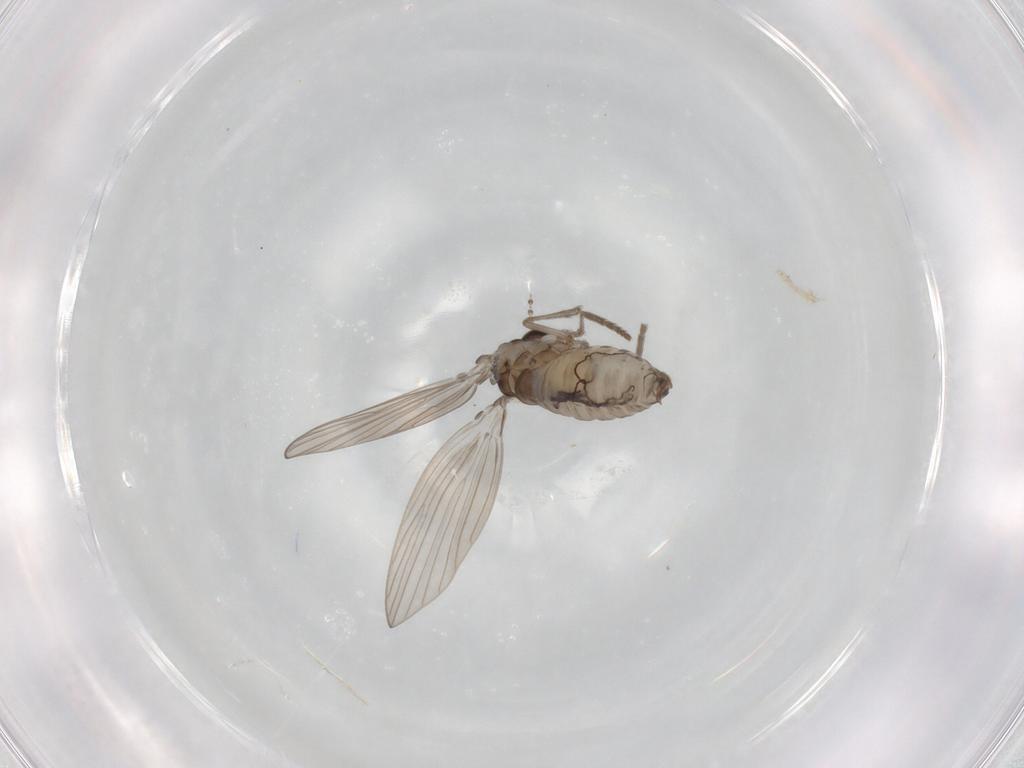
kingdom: Animalia
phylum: Arthropoda
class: Insecta
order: Diptera
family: Psychodidae
